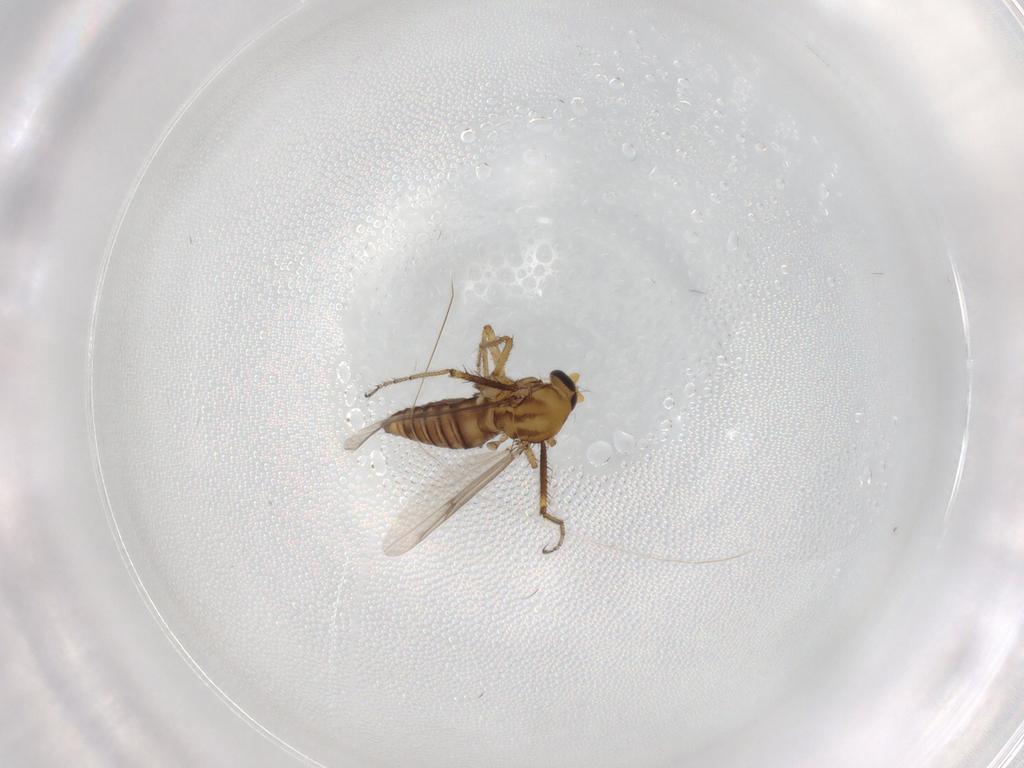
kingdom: Animalia
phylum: Arthropoda
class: Insecta
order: Diptera
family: Ceratopogonidae
